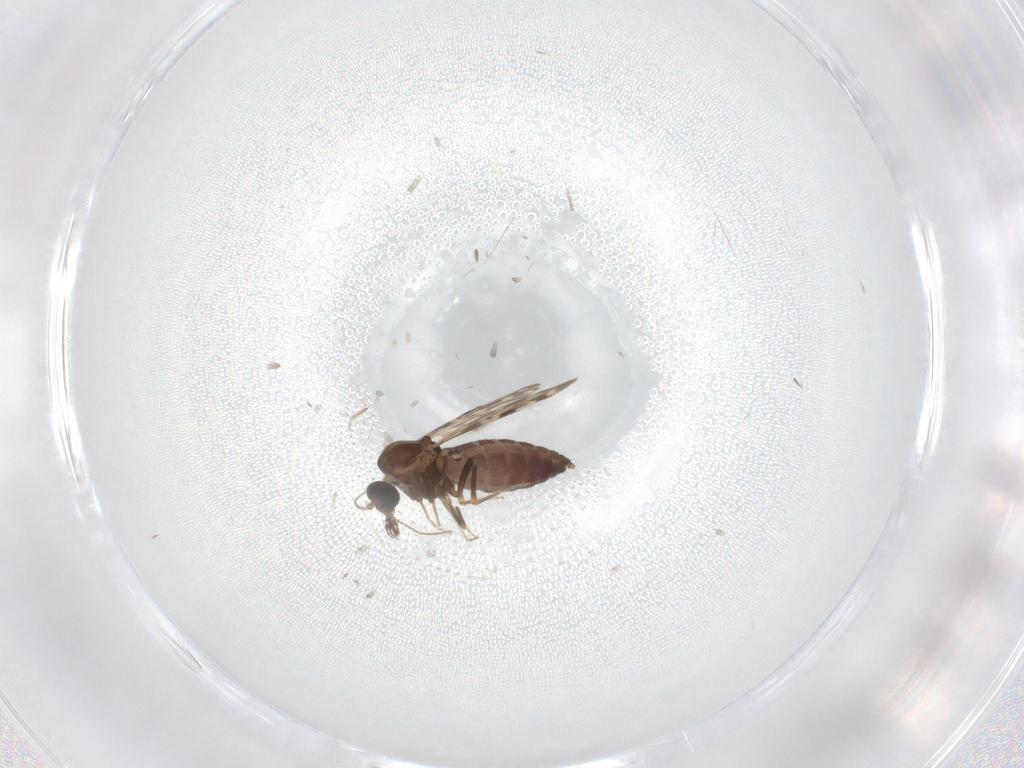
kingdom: Animalia
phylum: Arthropoda
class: Insecta
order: Diptera
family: Ceratopogonidae
